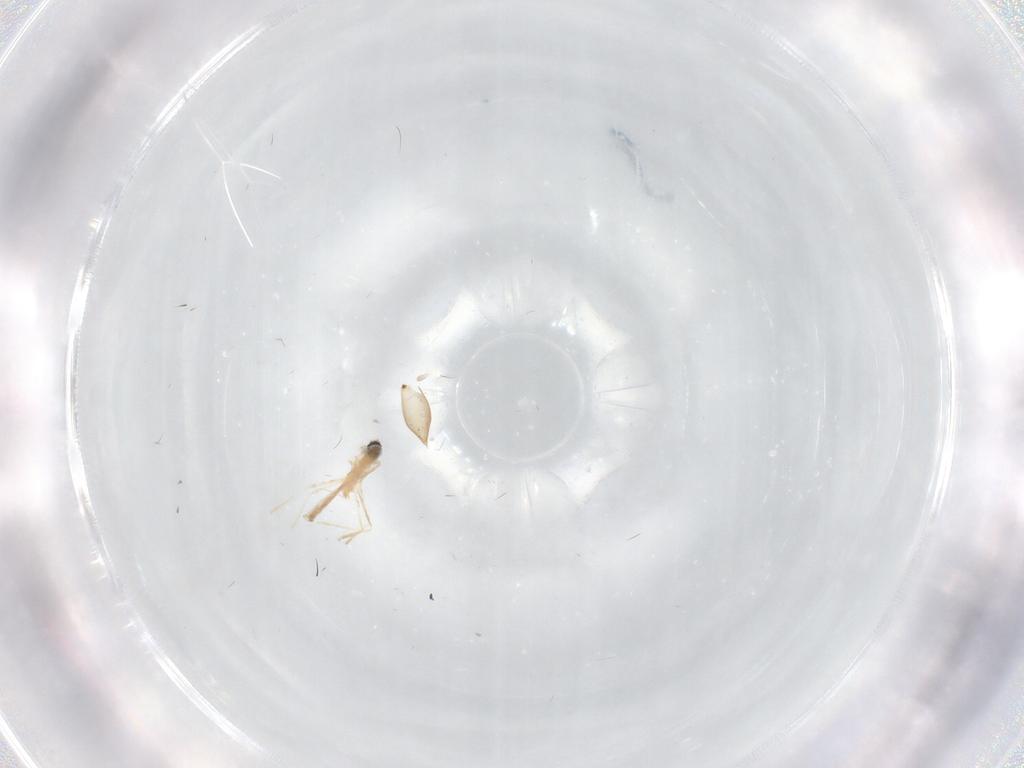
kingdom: Animalia
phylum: Arthropoda
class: Insecta
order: Diptera
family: Cecidomyiidae
